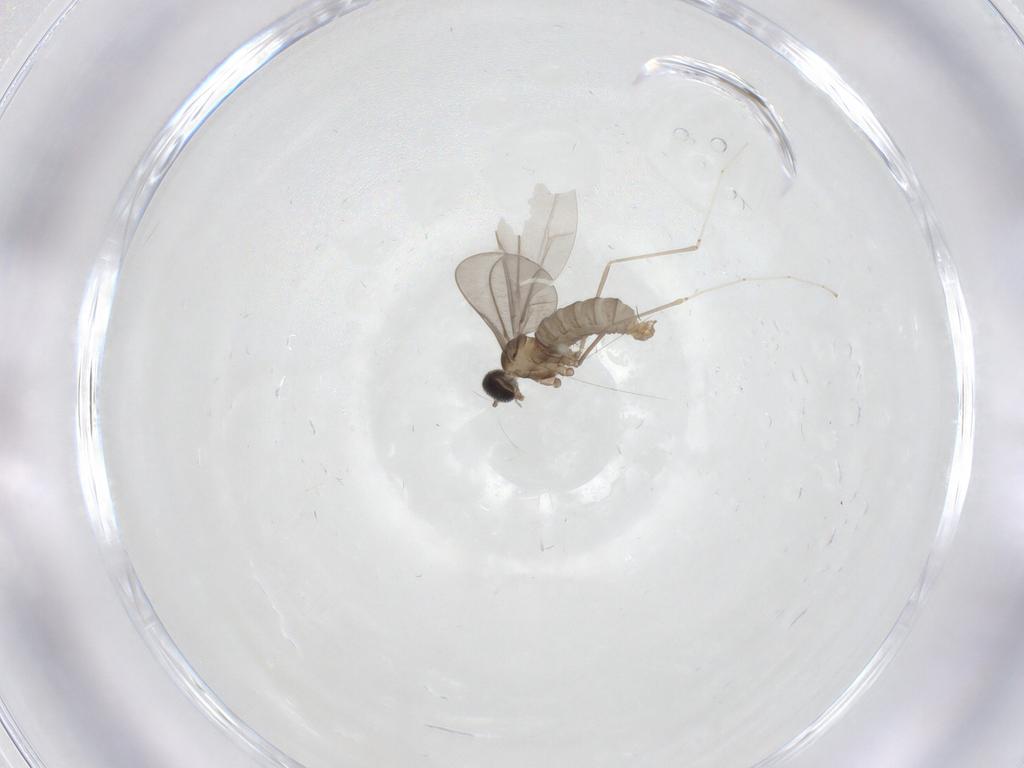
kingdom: Animalia
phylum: Arthropoda
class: Insecta
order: Diptera
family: Cecidomyiidae
